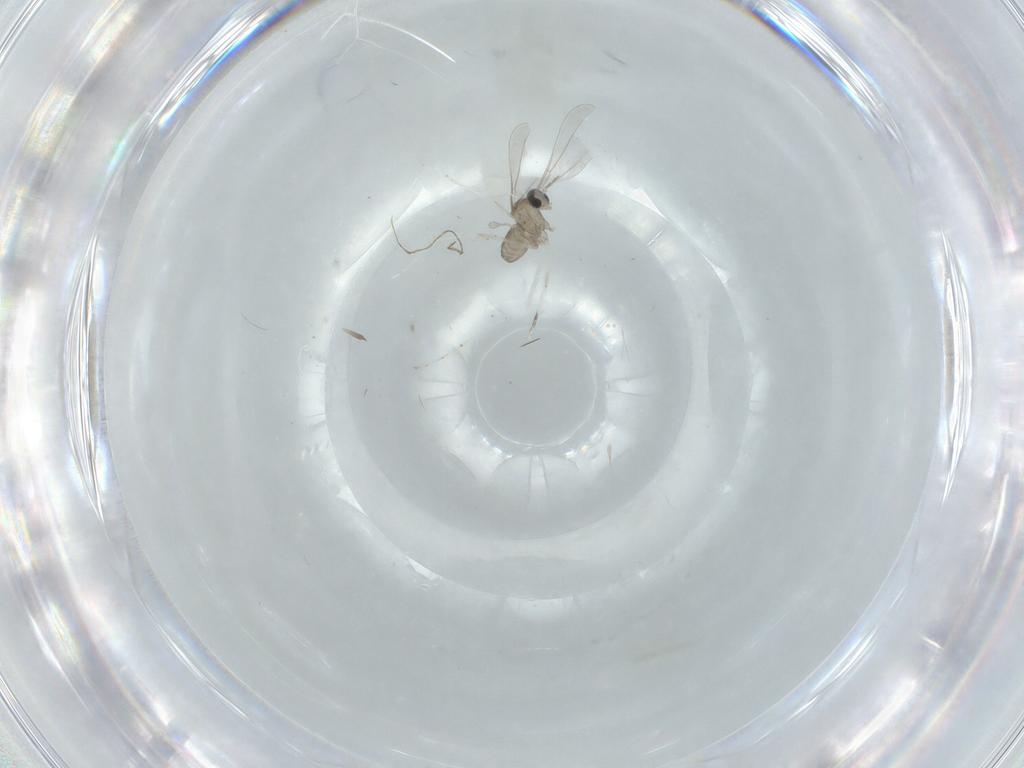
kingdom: Animalia
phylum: Arthropoda
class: Insecta
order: Diptera
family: Cecidomyiidae
